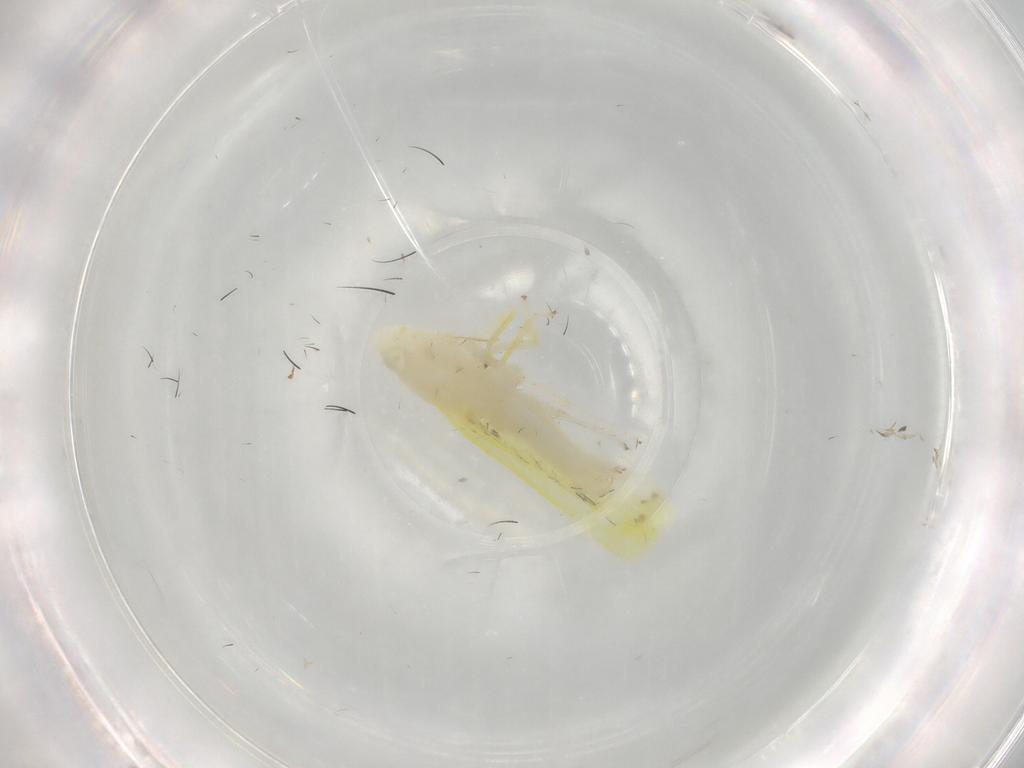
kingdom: Animalia
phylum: Arthropoda
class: Insecta
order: Hemiptera
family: Cicadellidae
